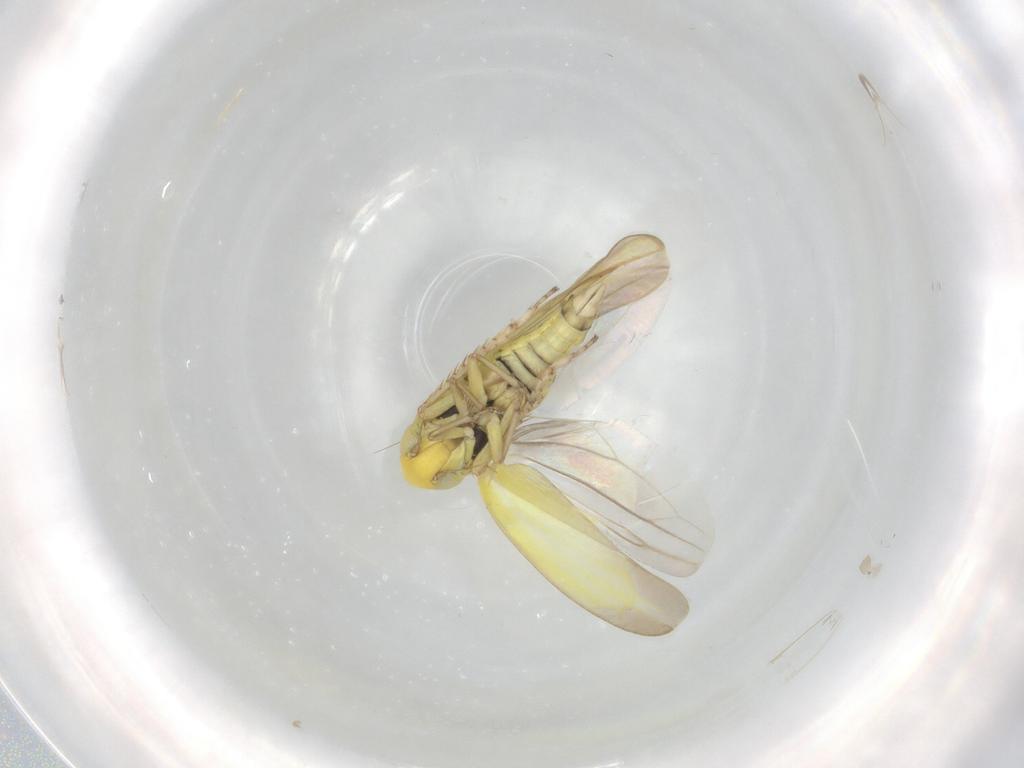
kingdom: Animalia
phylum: Arthropoda
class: Insecta
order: Hemiptera
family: Cicadellidae
